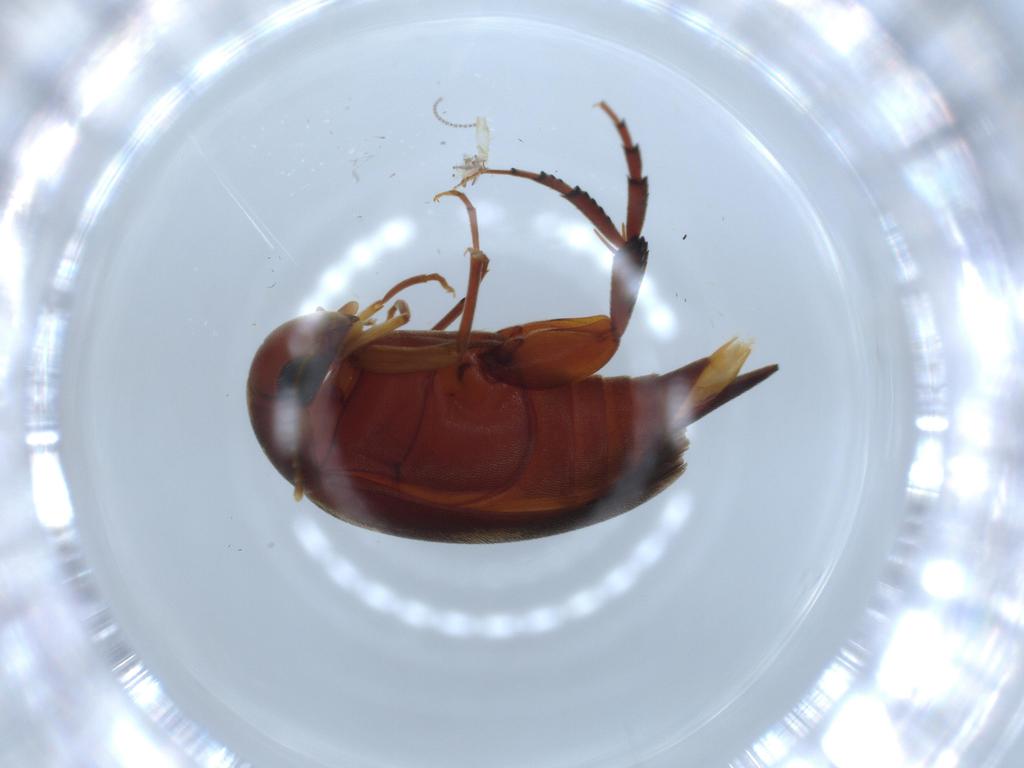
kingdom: Animalia
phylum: Arthropoda
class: Insecta
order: Coleoptera
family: Mordellidae
